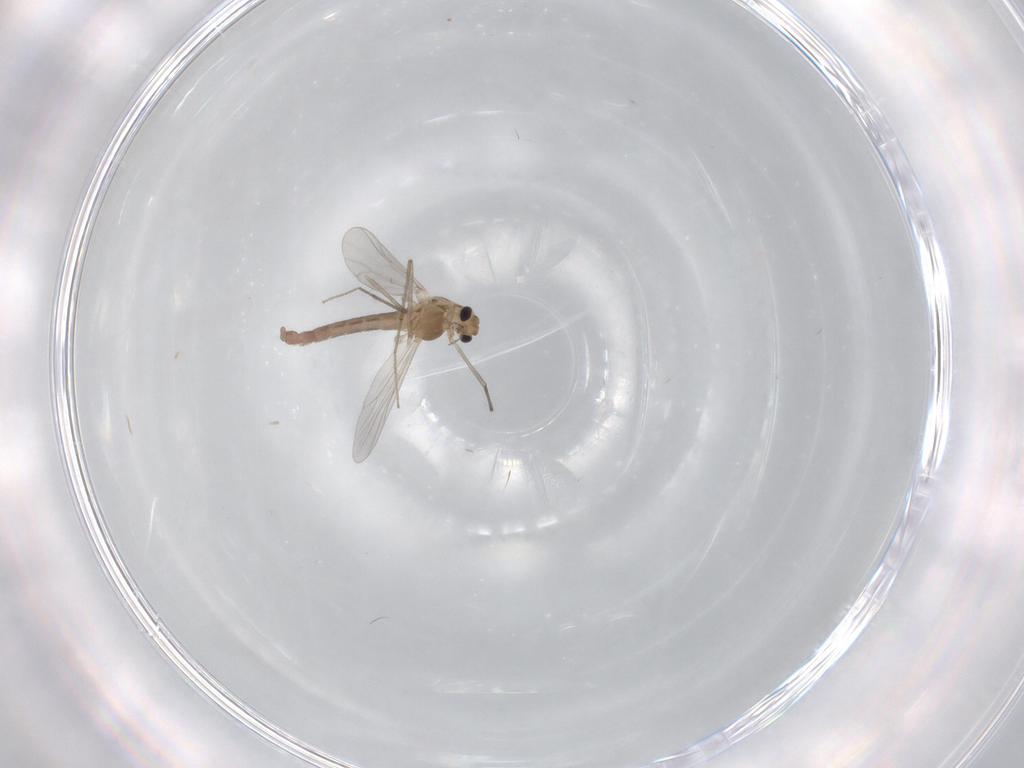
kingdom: Animalia
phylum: Arthropoda
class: Insecta
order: Diptera
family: Chironomidae
